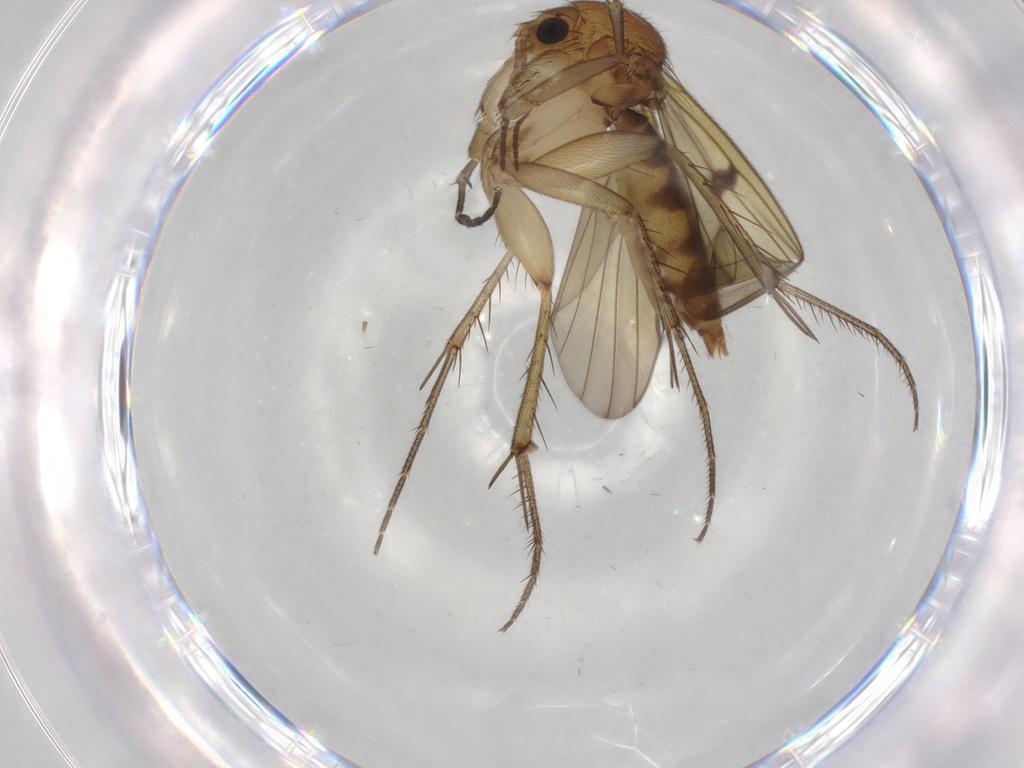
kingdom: Animalia
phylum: Arthropoda
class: Insecta
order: Diptera
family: Mycetophilidae
